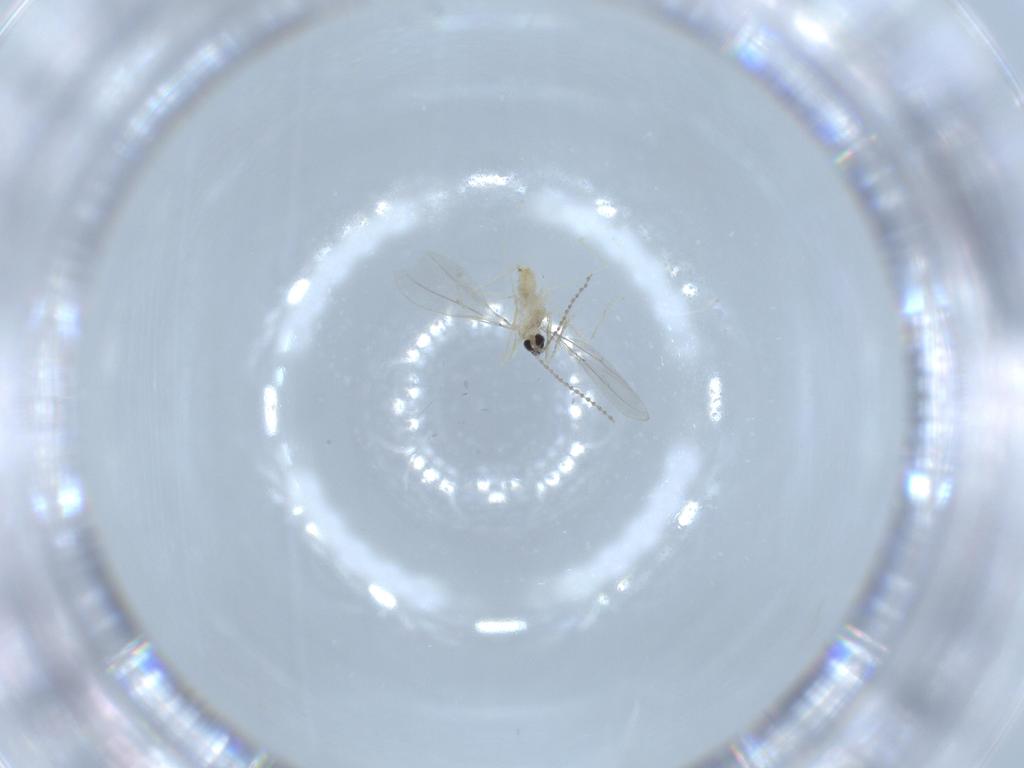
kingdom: Animalia
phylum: Arthropoda
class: Insecta
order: Diptera
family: Cecidomyiidae
